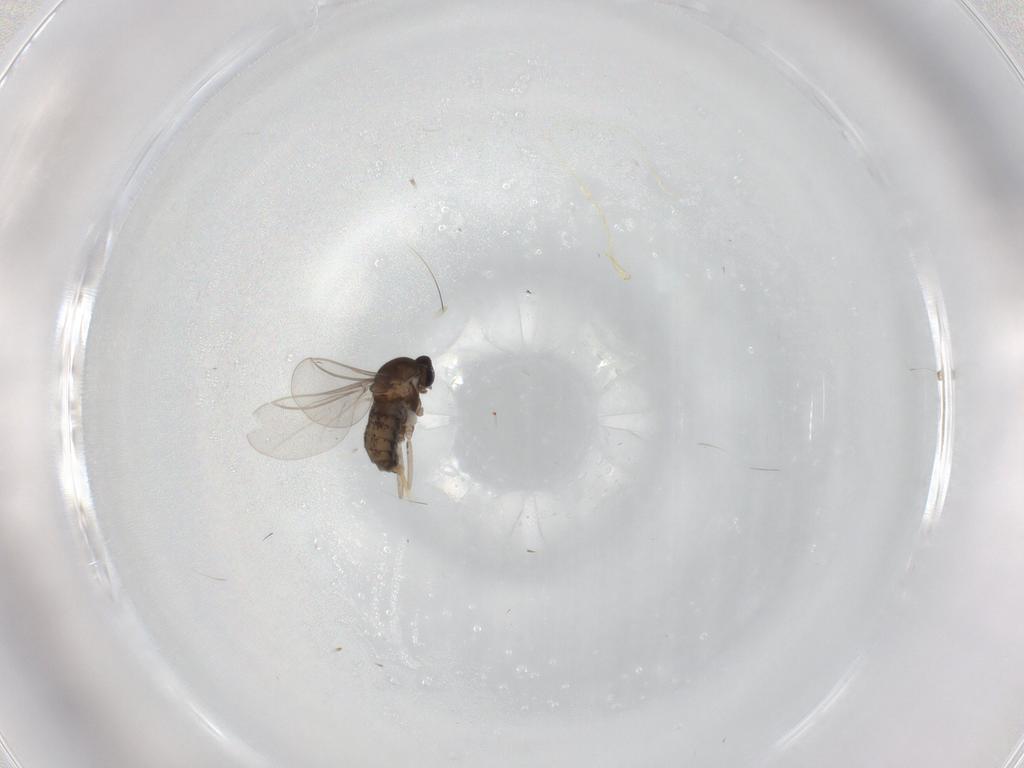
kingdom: Animalia
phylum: Arthropoda
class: Insecta
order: Diptera
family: Cecidomyiidae
